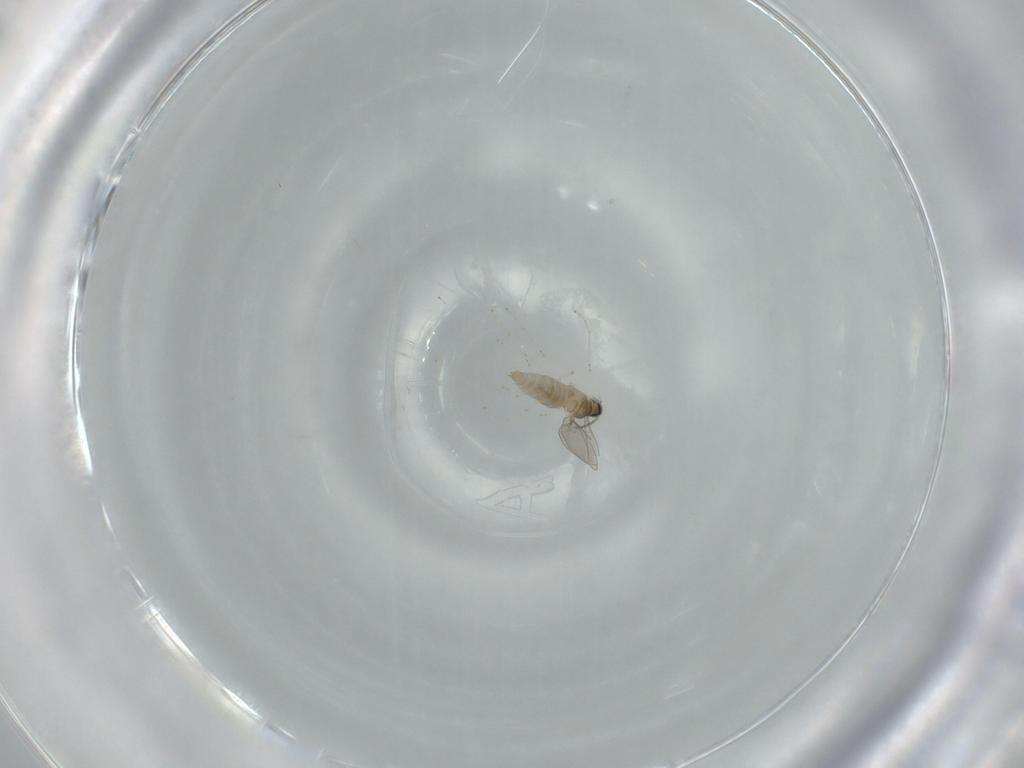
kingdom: Animalia
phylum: Arthropoda
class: Insecta
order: Diptera
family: Cecidomyiidae
